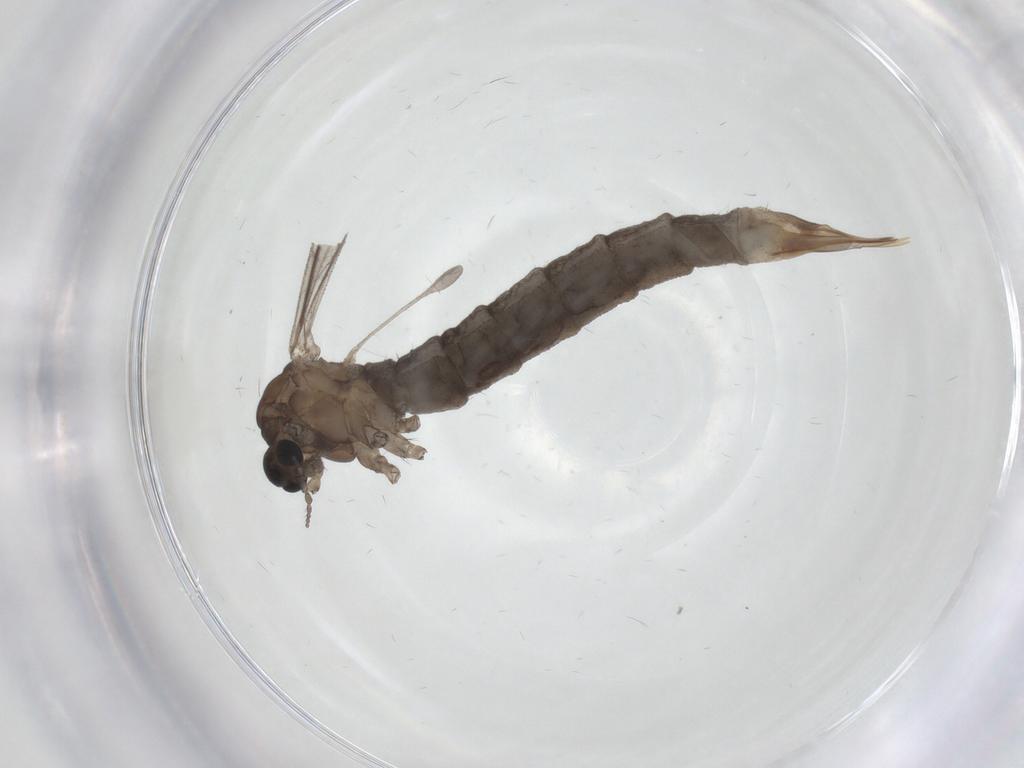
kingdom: Animalia
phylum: Arthropoda
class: Insecta
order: Diptera
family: Limoniidae
